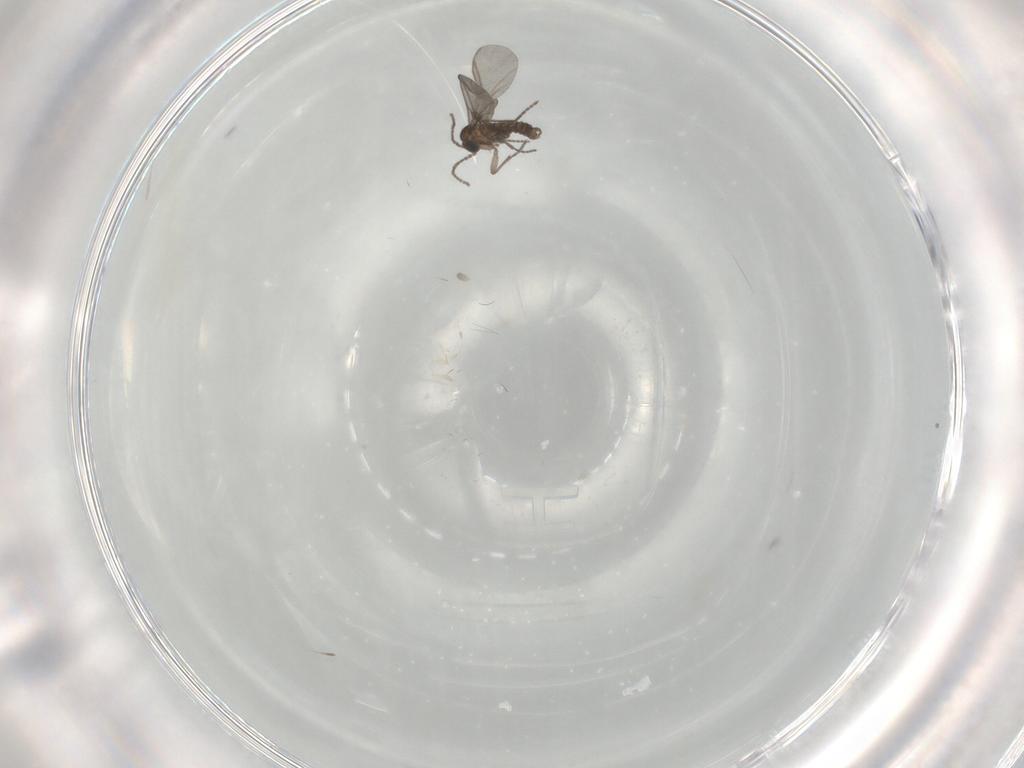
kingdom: Animalia
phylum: Arthropoda
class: Insecta
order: Diptera
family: Sciaridae
